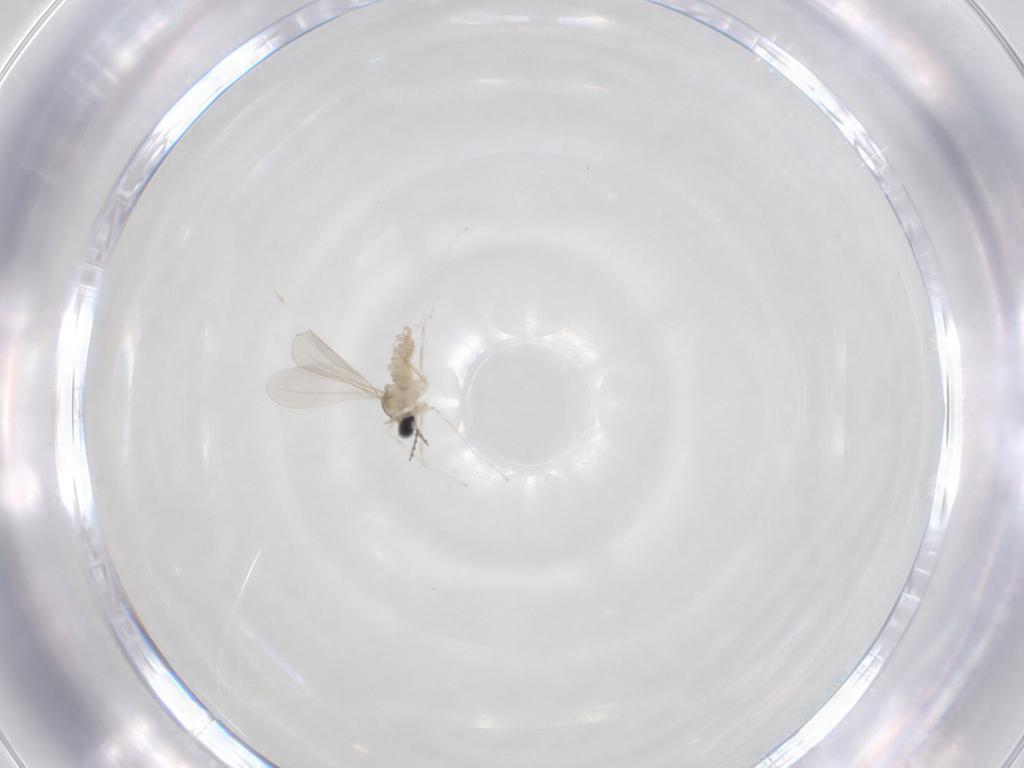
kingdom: Animalia
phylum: Arthropoda
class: Insecta
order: Diptera
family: Cecidomyiidae
